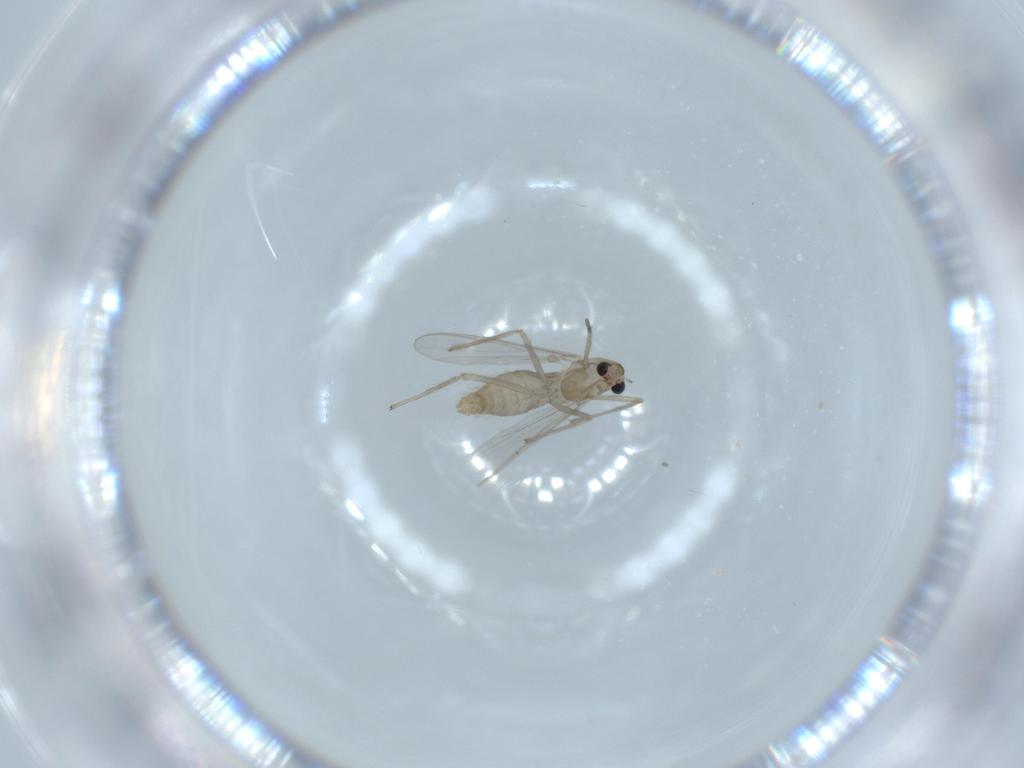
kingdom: Animalia
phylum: Arthropoda
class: Insecta
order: Diptera
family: Chironomidae
